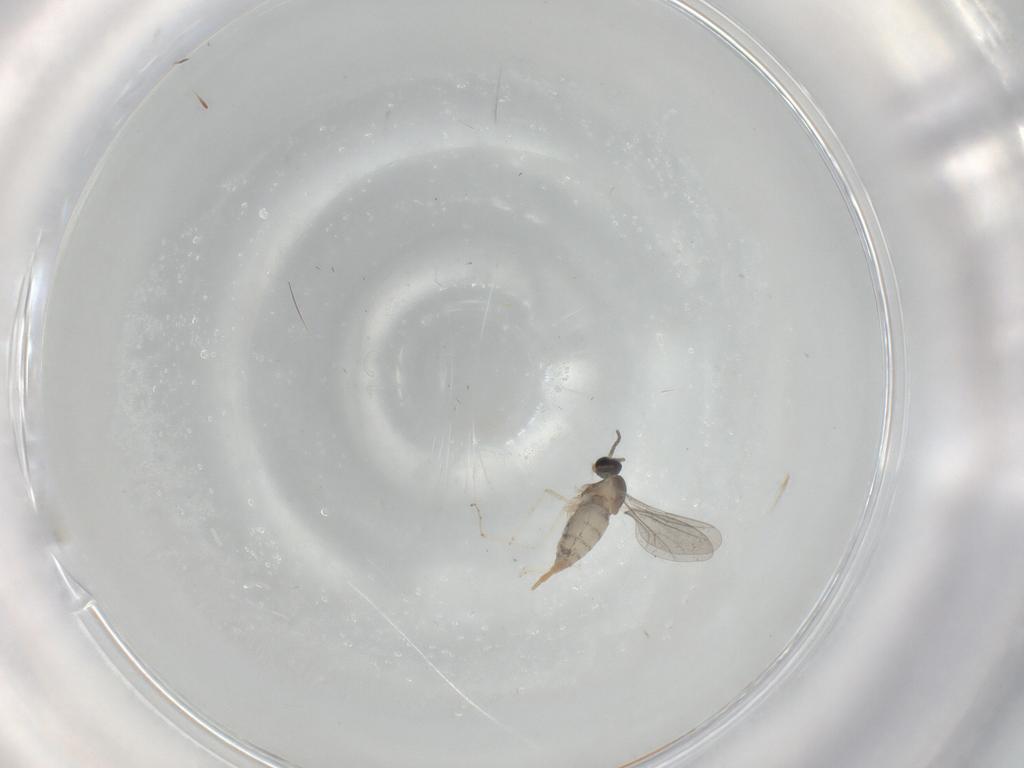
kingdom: Animalia
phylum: Arthropoda
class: Insecta
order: Diptera
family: Cecidomyiidae
